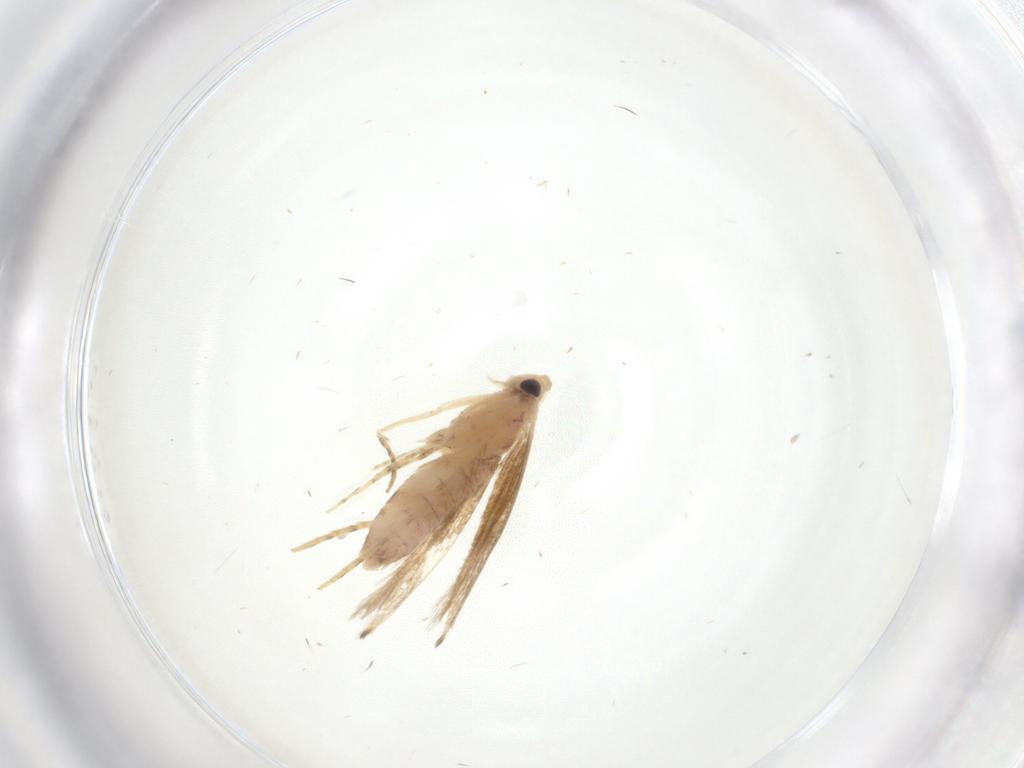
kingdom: Animalia
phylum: Arthropoda
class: Insecta
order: Lepidoptera
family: Lyonetiidae
